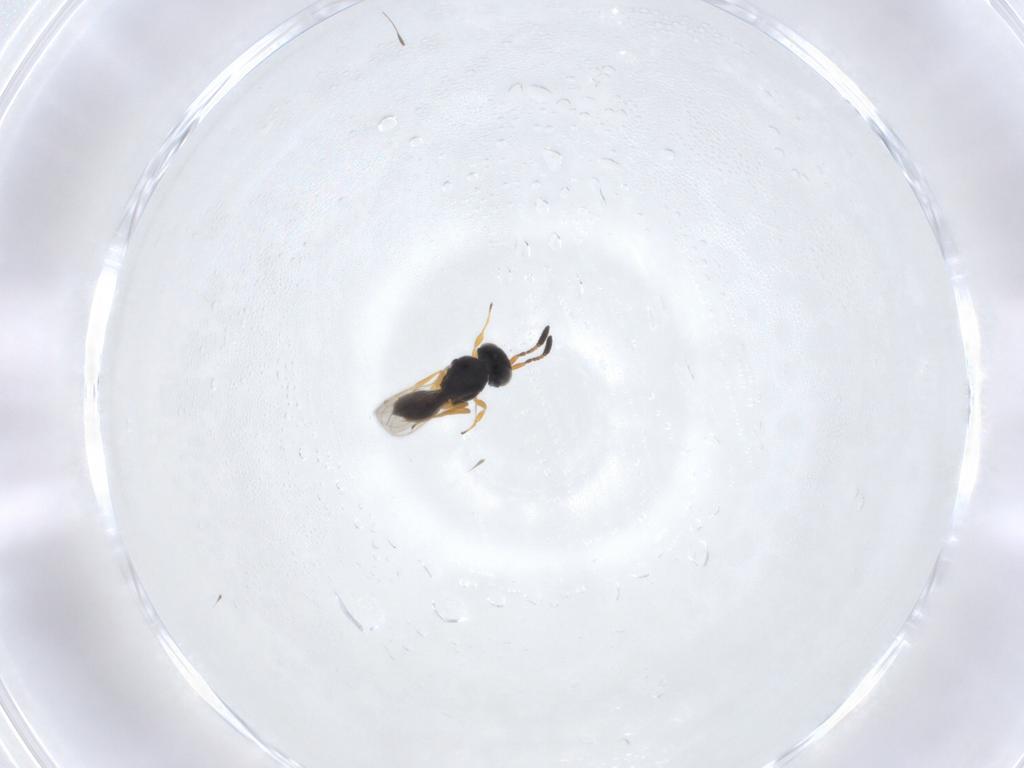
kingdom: Animalia
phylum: Arthropoda
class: Insecta
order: Hymenoptera
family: Scelionidae
